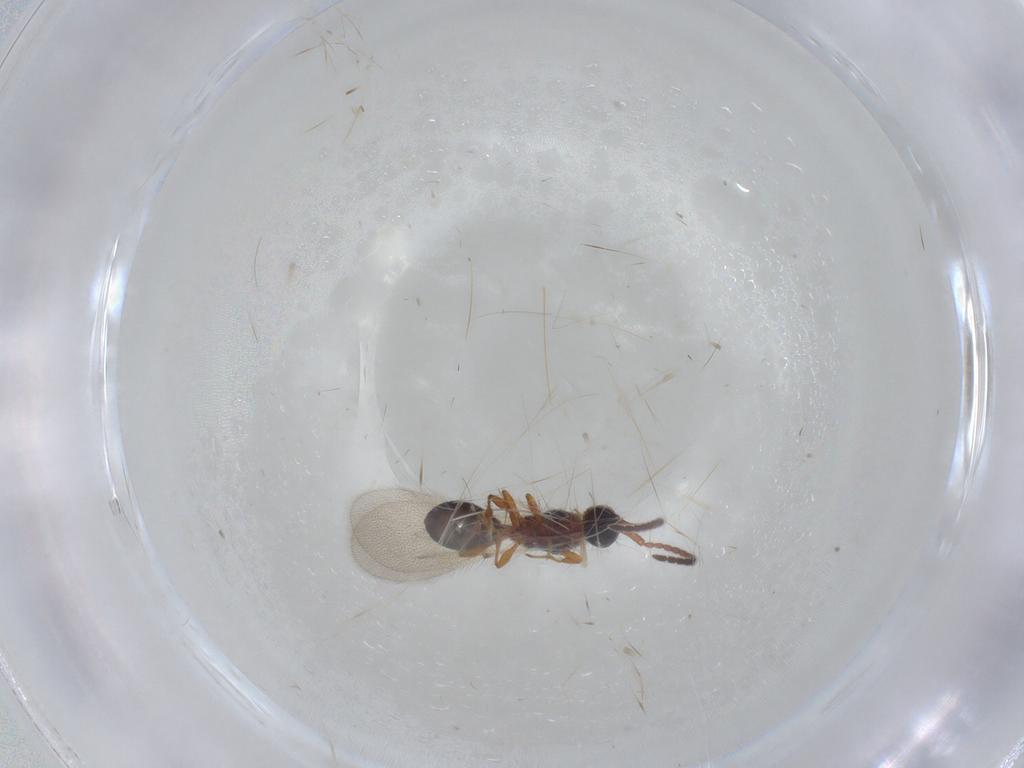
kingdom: Animalia
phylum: Arthropoda
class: Insecta
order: Hymenoptera
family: Diapriidae
